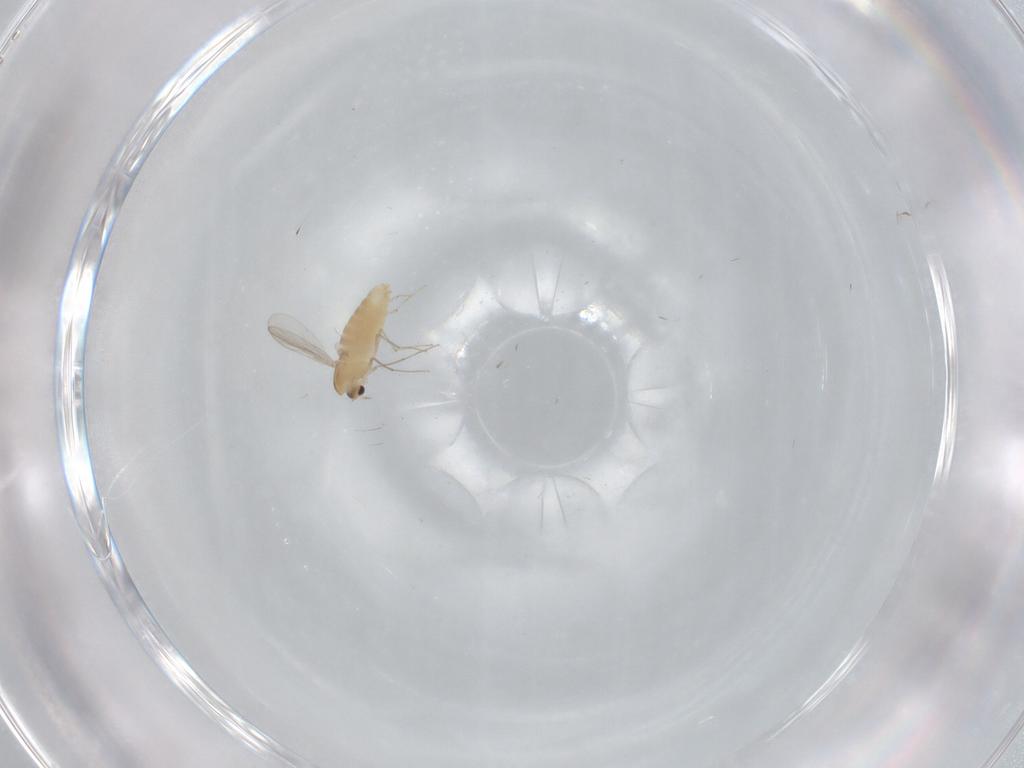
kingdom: Animalia
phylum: Arthropoda
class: Insecta
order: Diptera
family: Chironomidae
